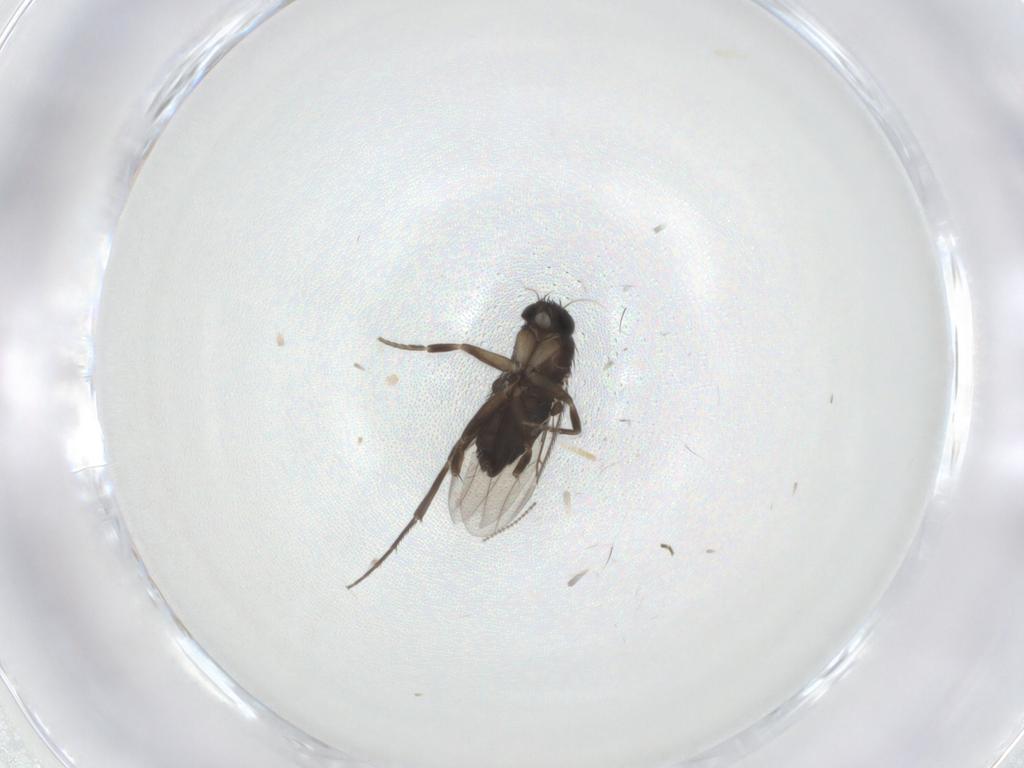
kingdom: Animalia
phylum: Arthropoda
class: Insecta
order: Diptera
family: Phoridae
